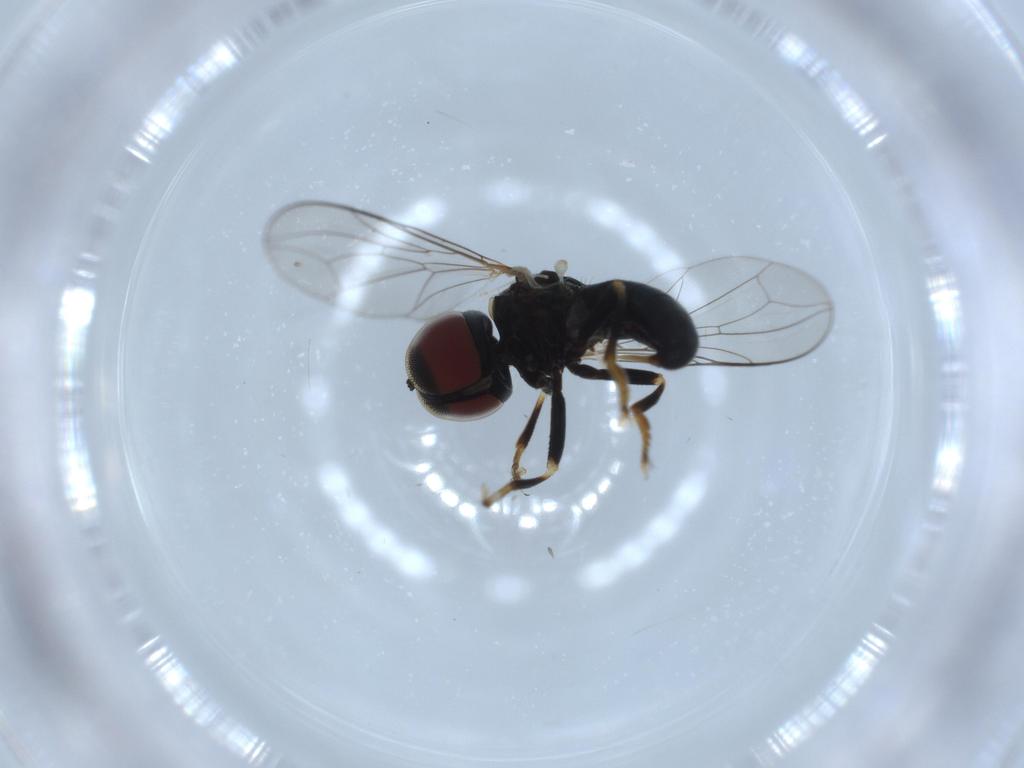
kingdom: Animalia
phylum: Arthropoda
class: Insecta
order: Diptera
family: Pipunculidae
